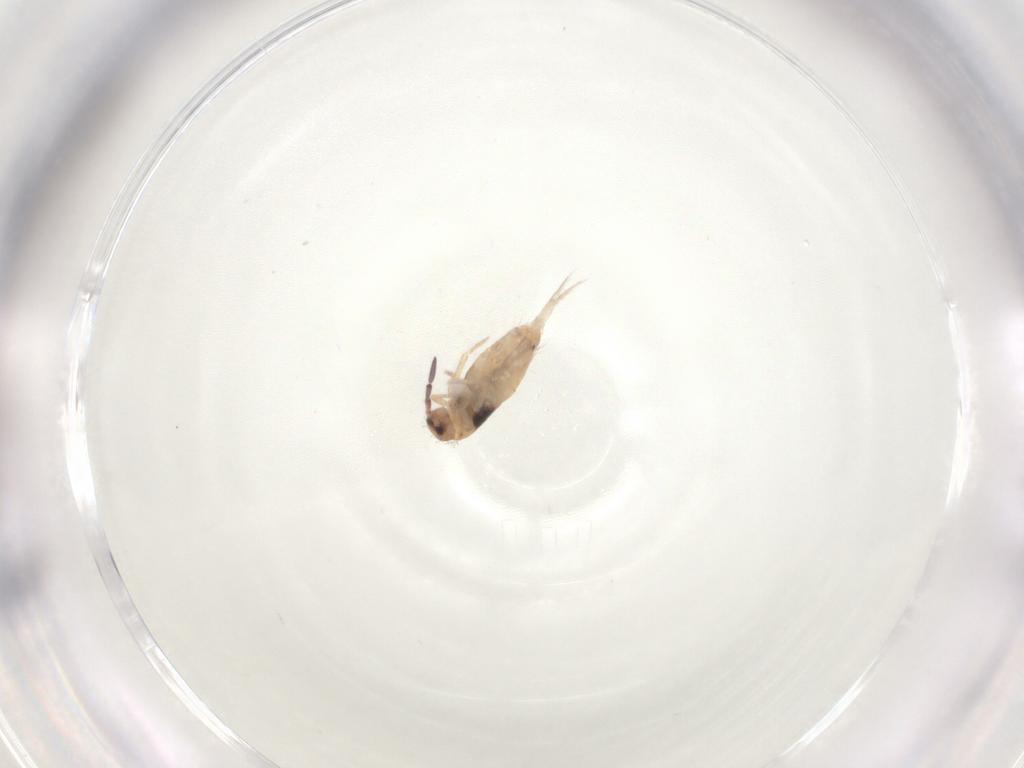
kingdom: Animalia
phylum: Arthropoda
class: Collembola
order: Entomobryomorpha
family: Entomobryidae
